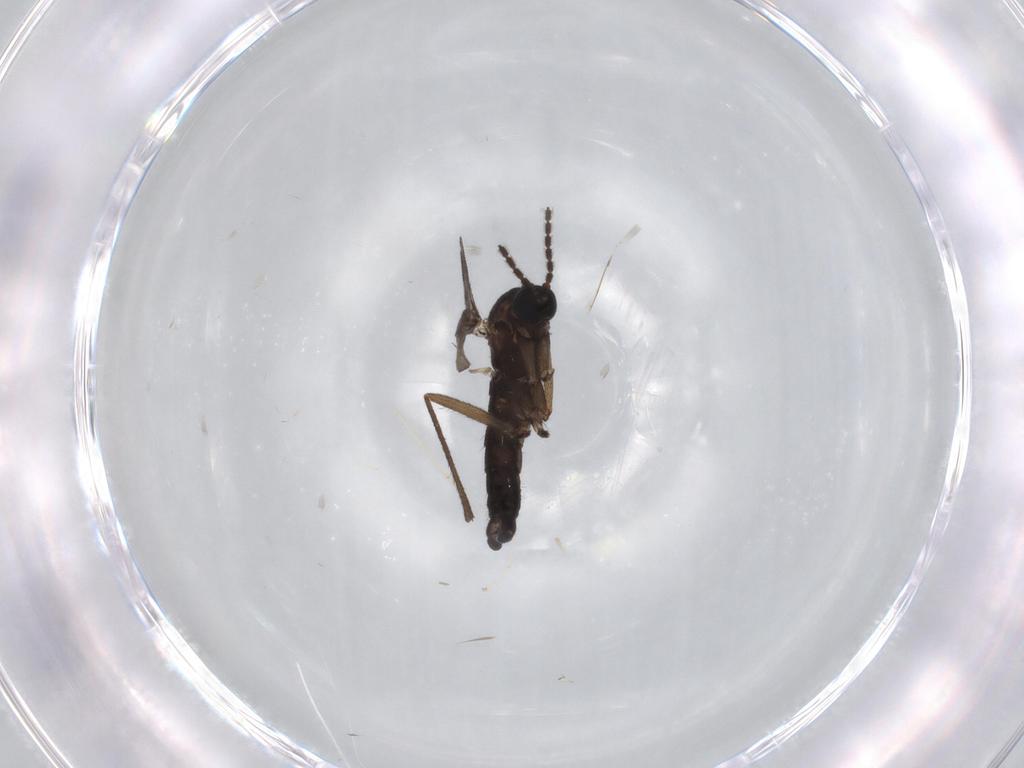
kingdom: Animalia
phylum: Arthropoda
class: Insecta
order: Diptera
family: Sciaridae
